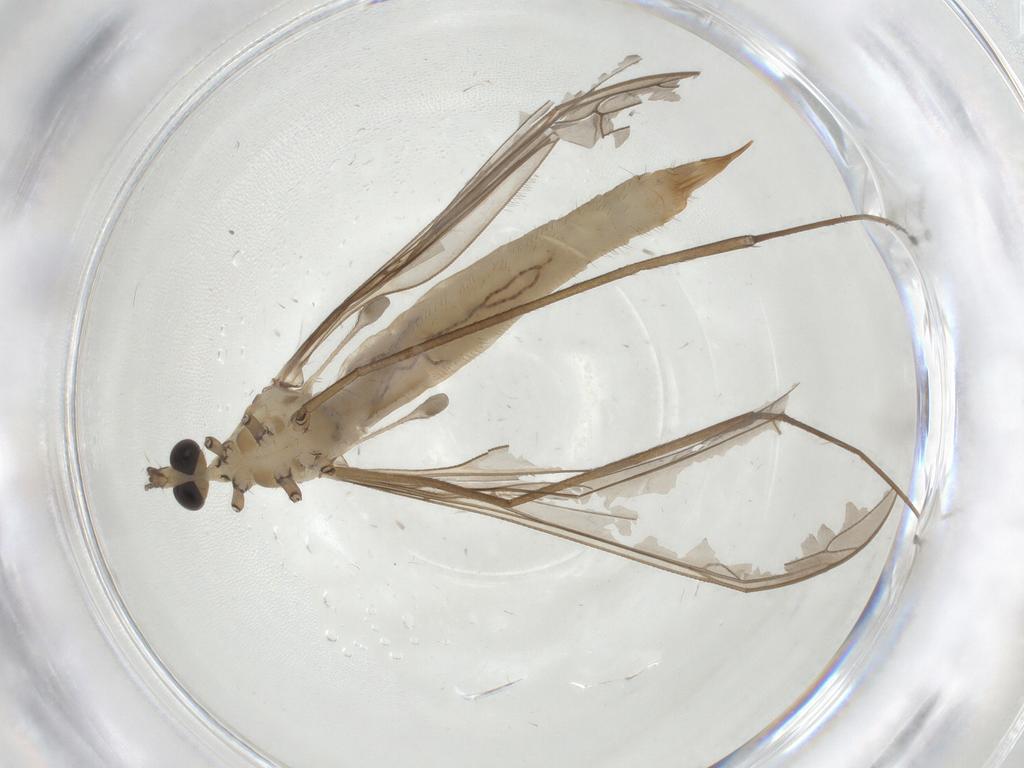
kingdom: Animalia
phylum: Arthropoda
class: Insecta
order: Diptera
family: Limoniidae
